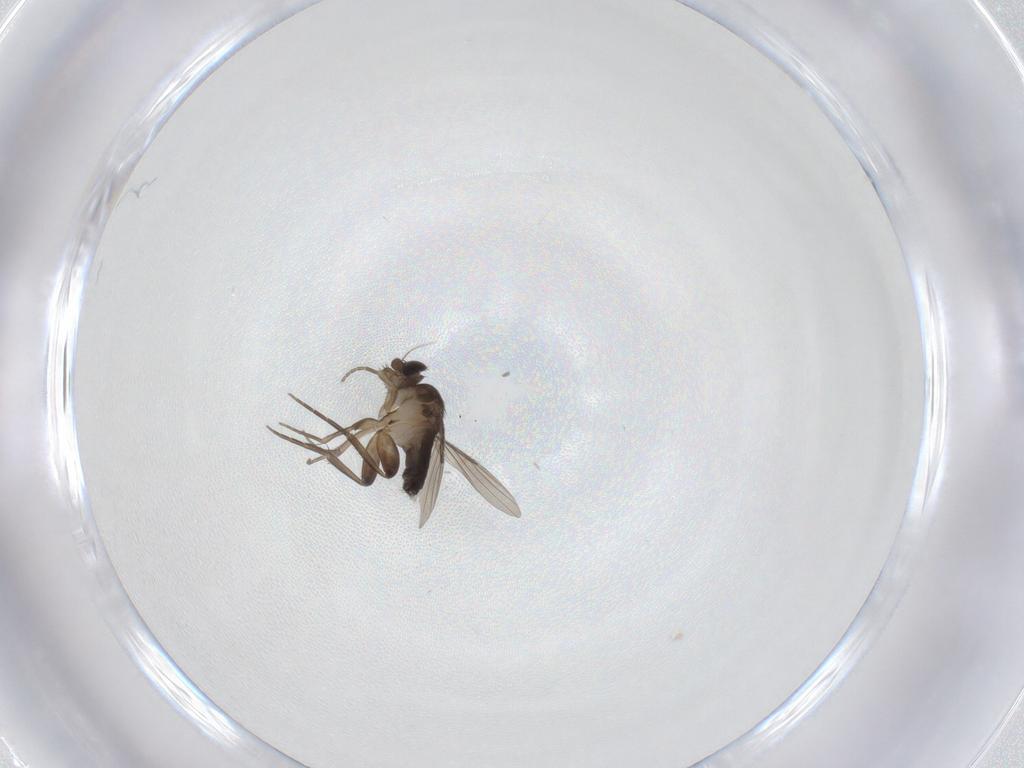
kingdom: Animalia
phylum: Arthropoda
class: Insecta
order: Diptera
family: Phoridae
